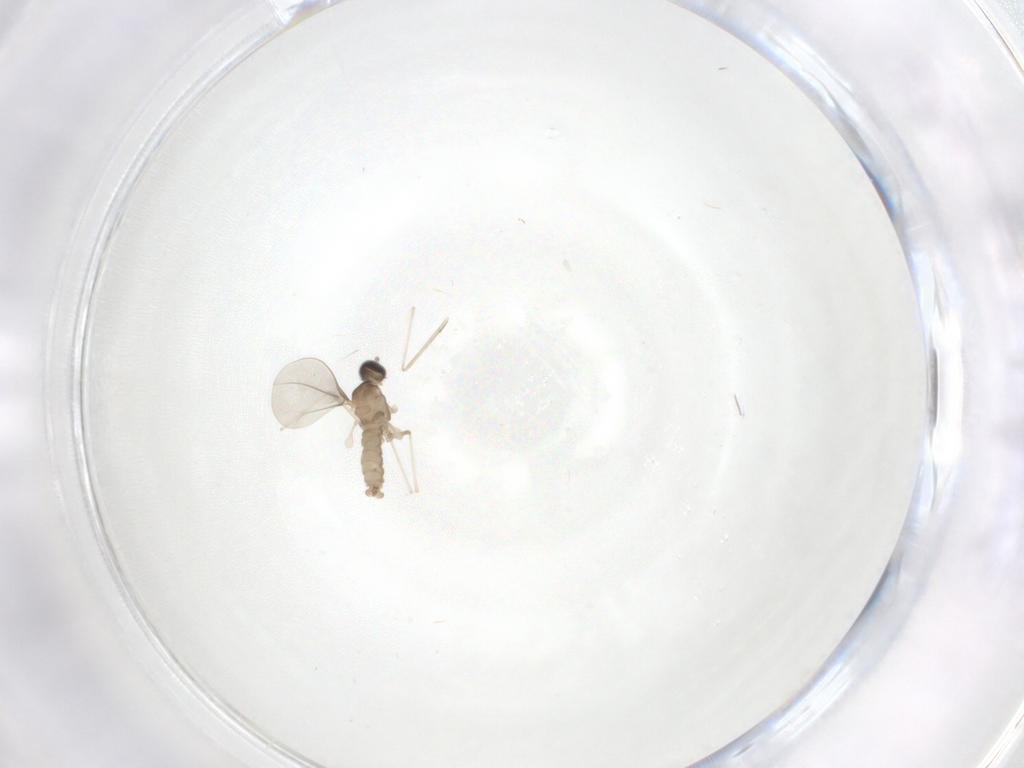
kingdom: Animalia
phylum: Arthropoda
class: Insecta
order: Diptera
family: Cecidomyiidae
